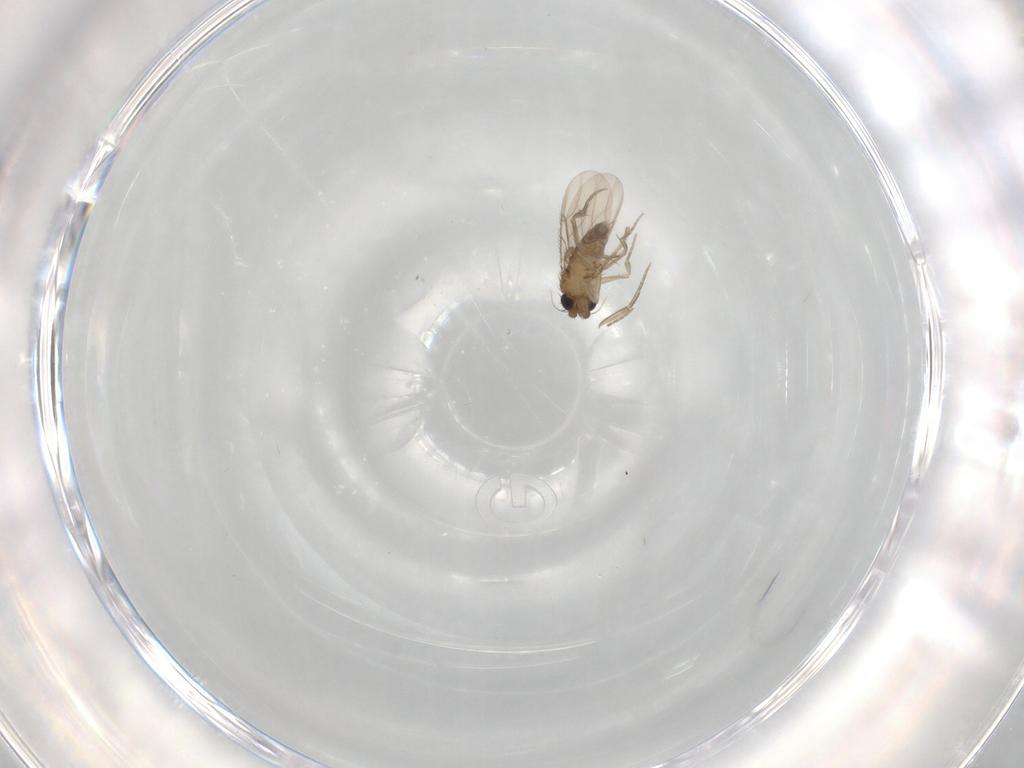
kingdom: Animalia
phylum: Arthropoda
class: Insecta
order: Diptera
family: Phoridae
